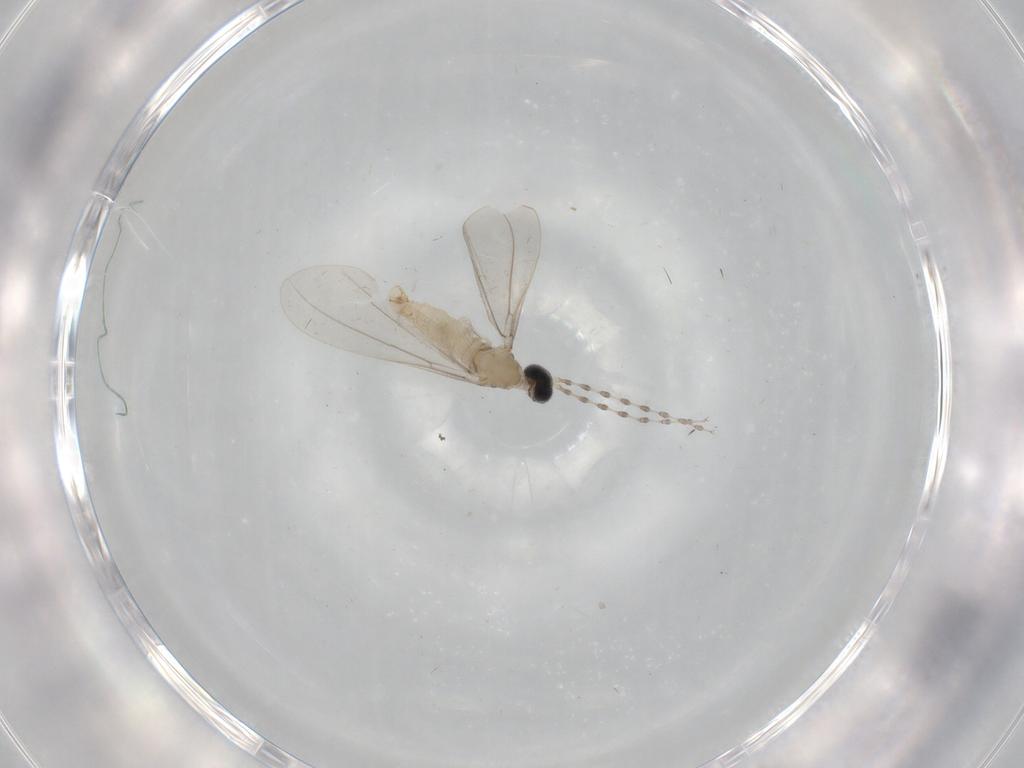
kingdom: Animalia
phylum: Arthropoda
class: Insecta
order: Diptera
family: Cecidomyiidae
